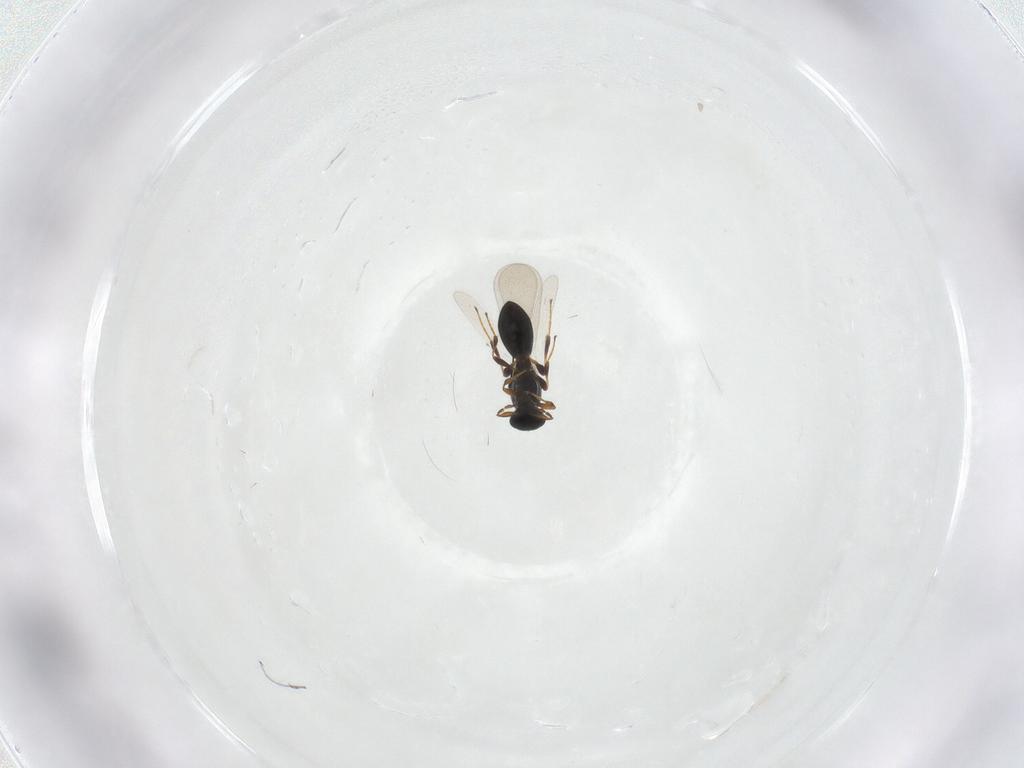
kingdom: Animalia
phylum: Arthropoda
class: Insecta
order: Hymenoptera
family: Platygastridae
